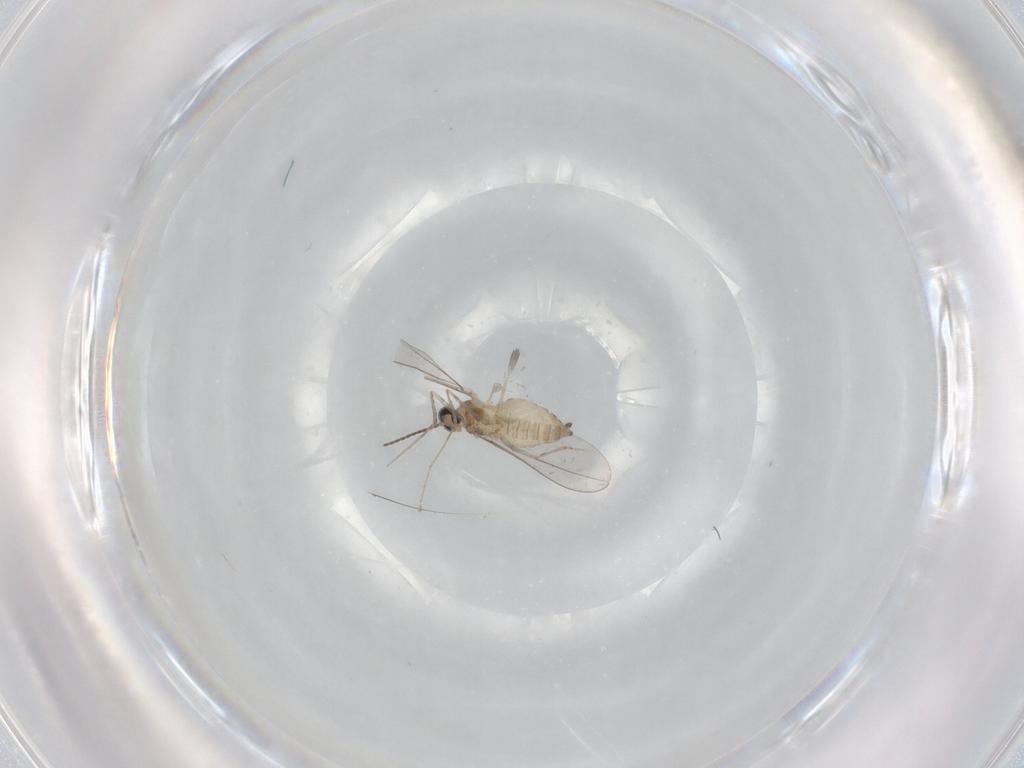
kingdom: Animalia
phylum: Arthropoda
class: Insecta
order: Diptera
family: Cecidomyiidae
